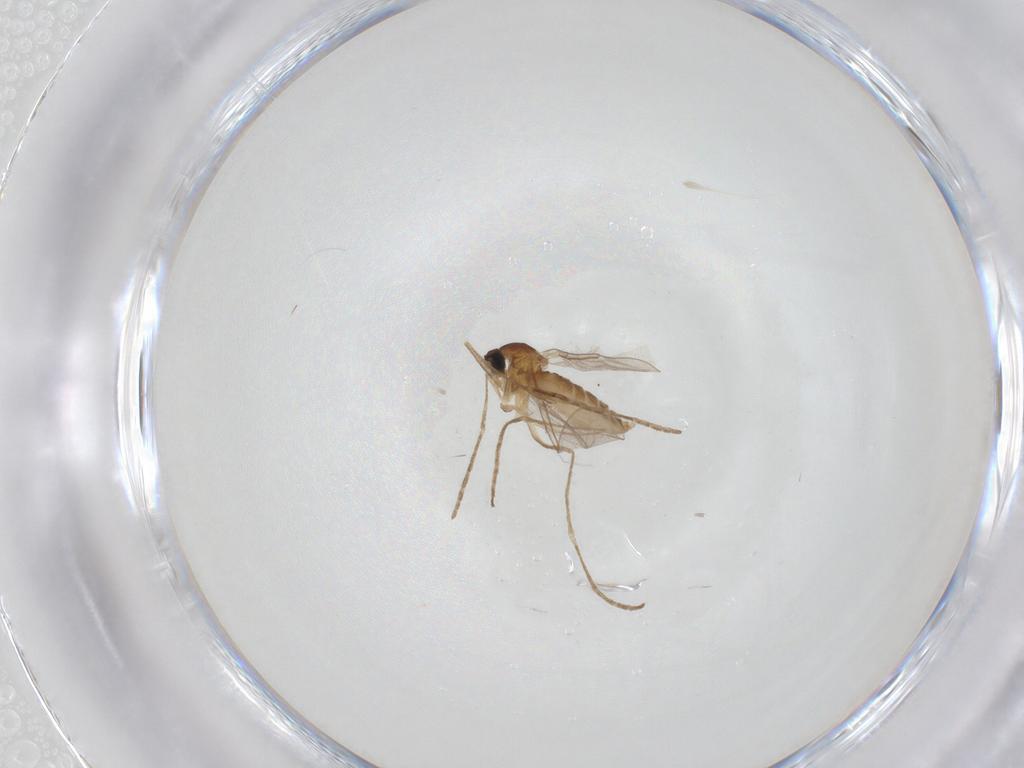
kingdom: Animalia
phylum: Arthropoda
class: Insecta
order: Diptera
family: Cecidomyiidae
